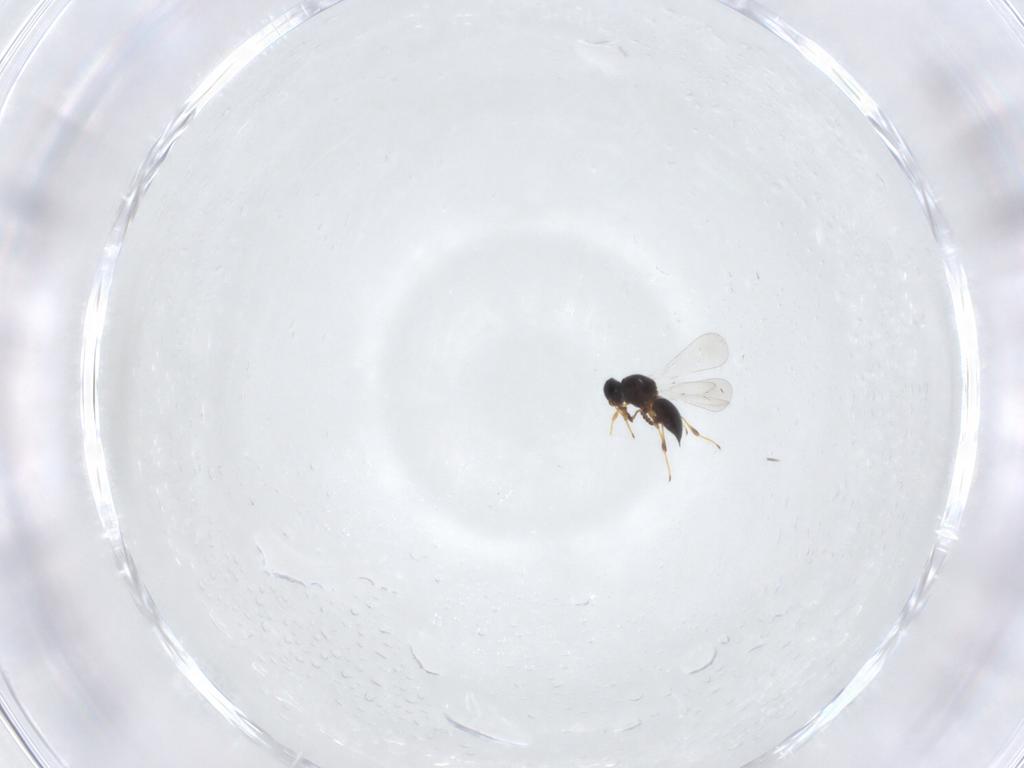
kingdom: Animalia
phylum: Arthropoda
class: Insecta
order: Hymenoptera
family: Platygastridae
